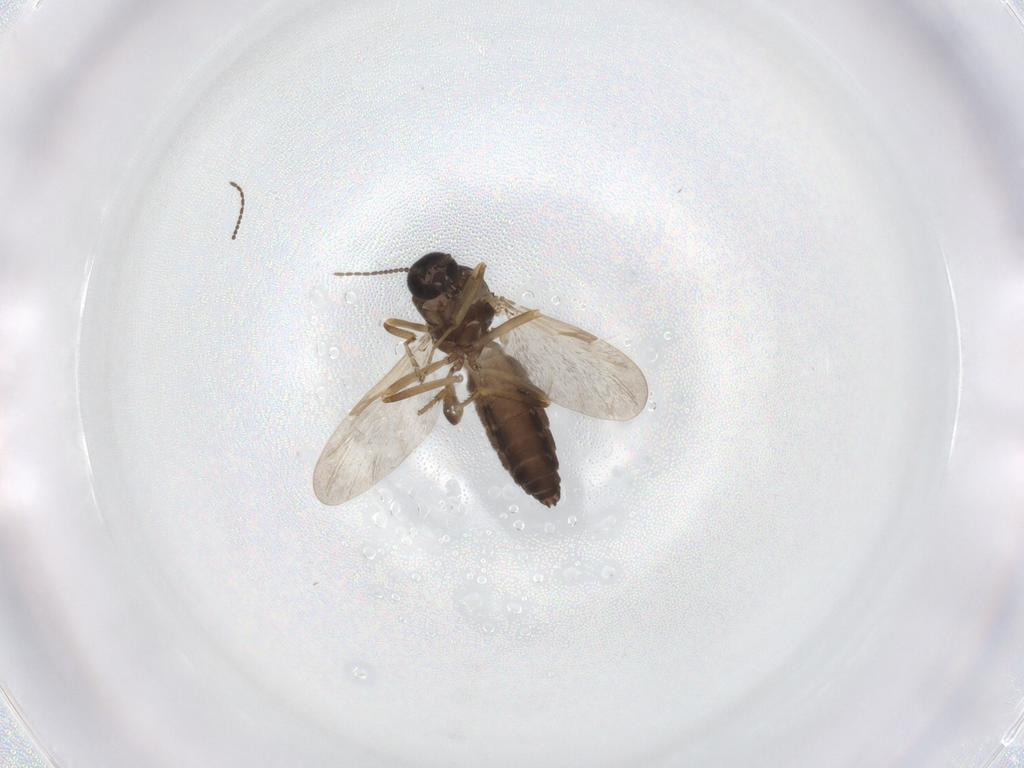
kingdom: Animalia
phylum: Arthropoda
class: Insecta
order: Diptera
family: Ceratopogonidae
